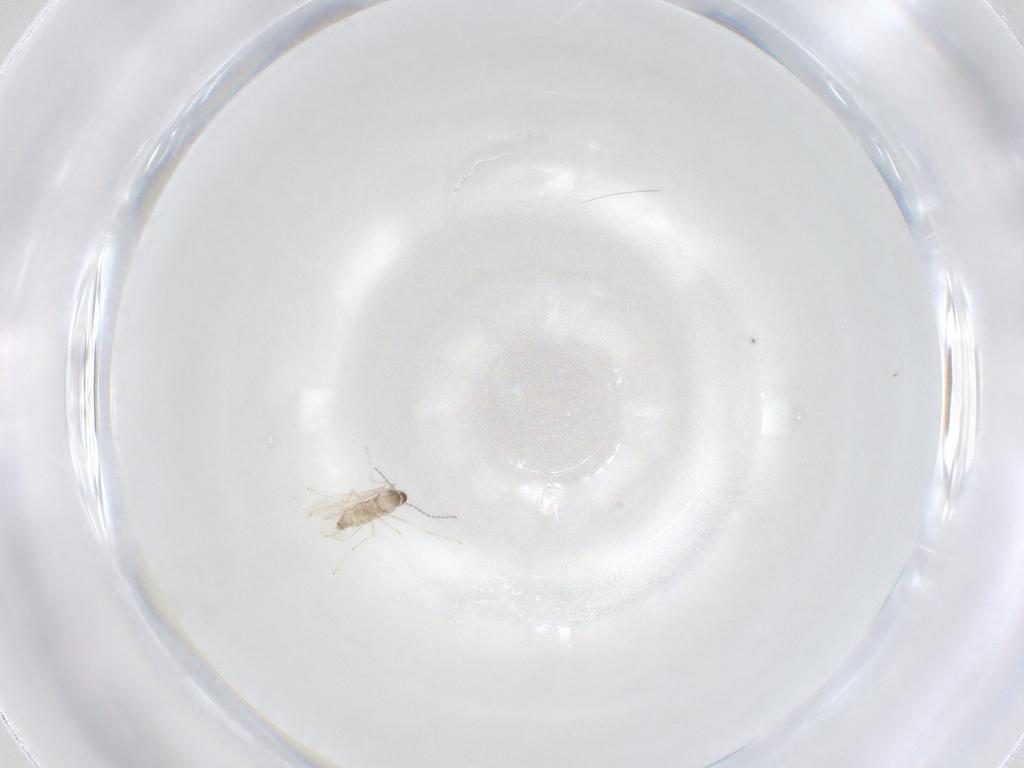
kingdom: Animalia
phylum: Arthropoda
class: Insecta
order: Diptera
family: Cecidomyiidae
